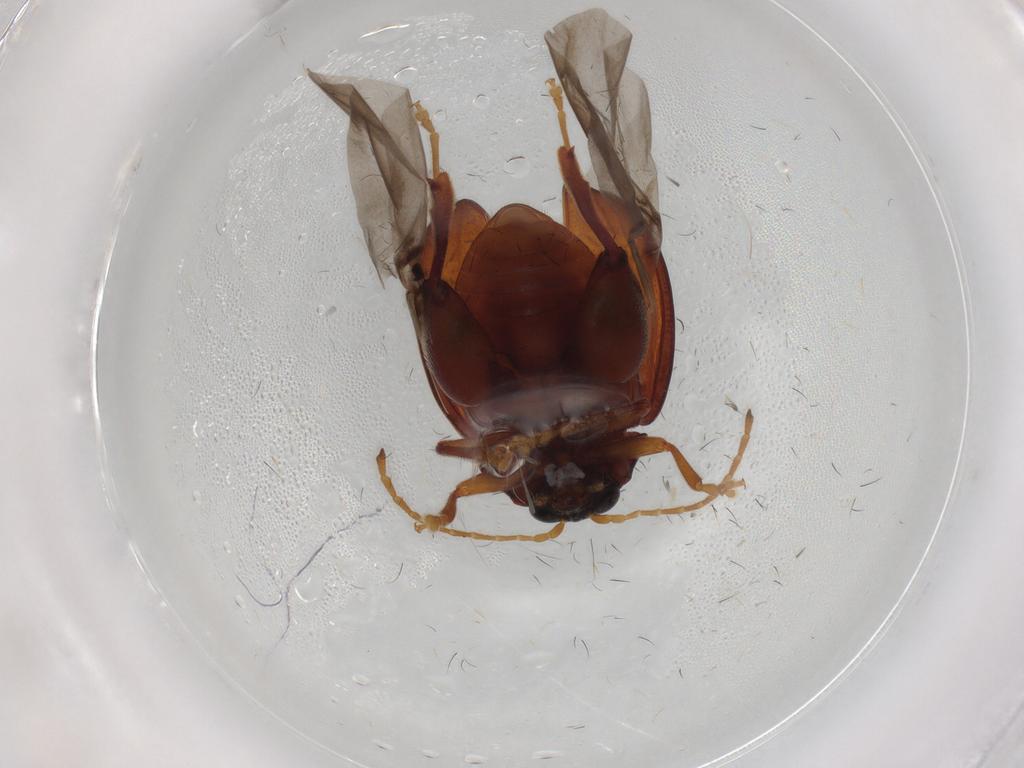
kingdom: Animalia
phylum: Arthropoda
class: Insecta
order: Coleoptera
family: Chrysomelidae
